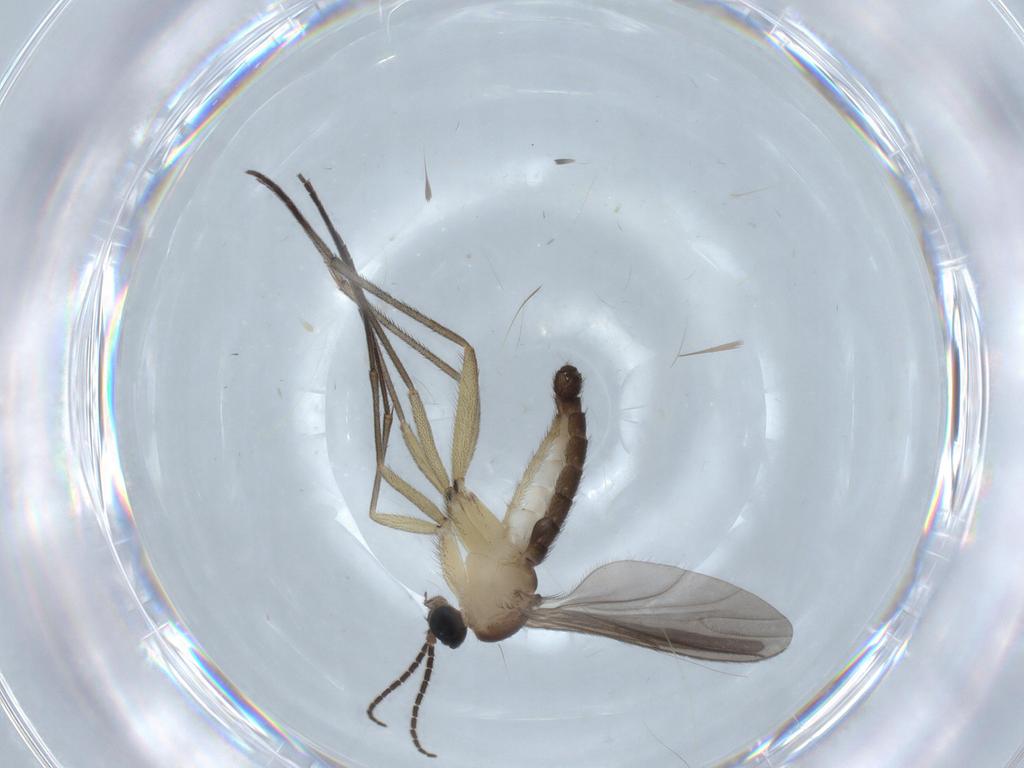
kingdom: Animalia
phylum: Arthropoda
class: Insecta
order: Diptera
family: Sciaridae
